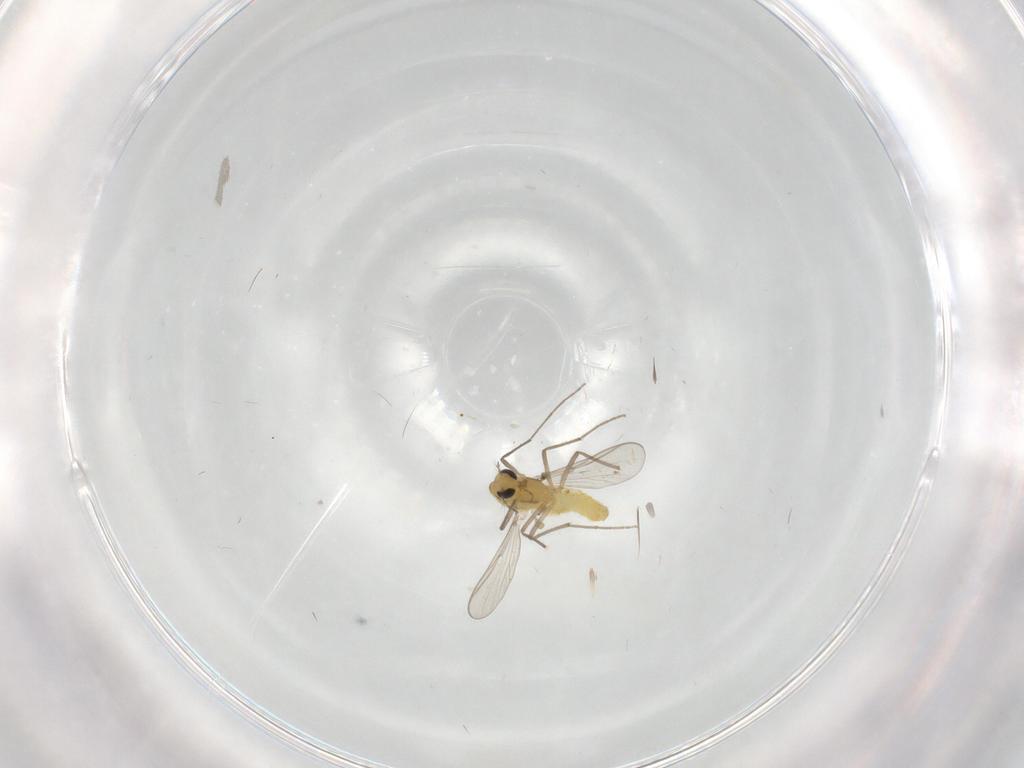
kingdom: Animalia
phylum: Arthropoda
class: Insecta
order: Diptera
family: Chironomidae
